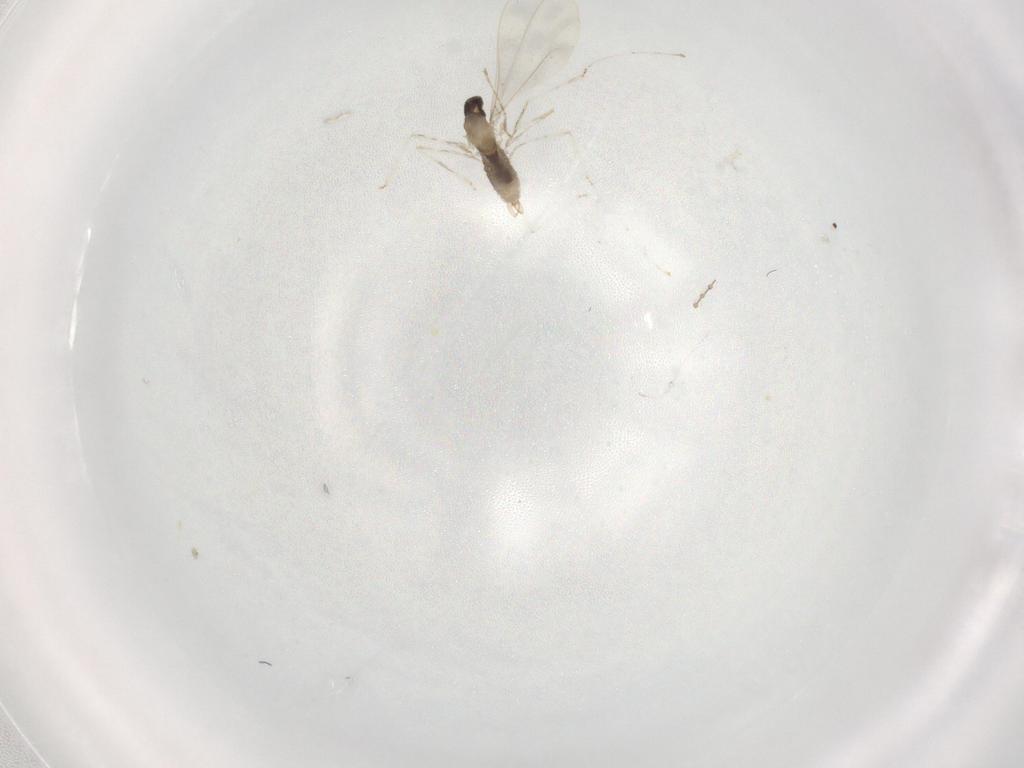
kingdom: Animalia
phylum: Arthropoda
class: Insecta
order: Diptera
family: Cecidomyiidae
